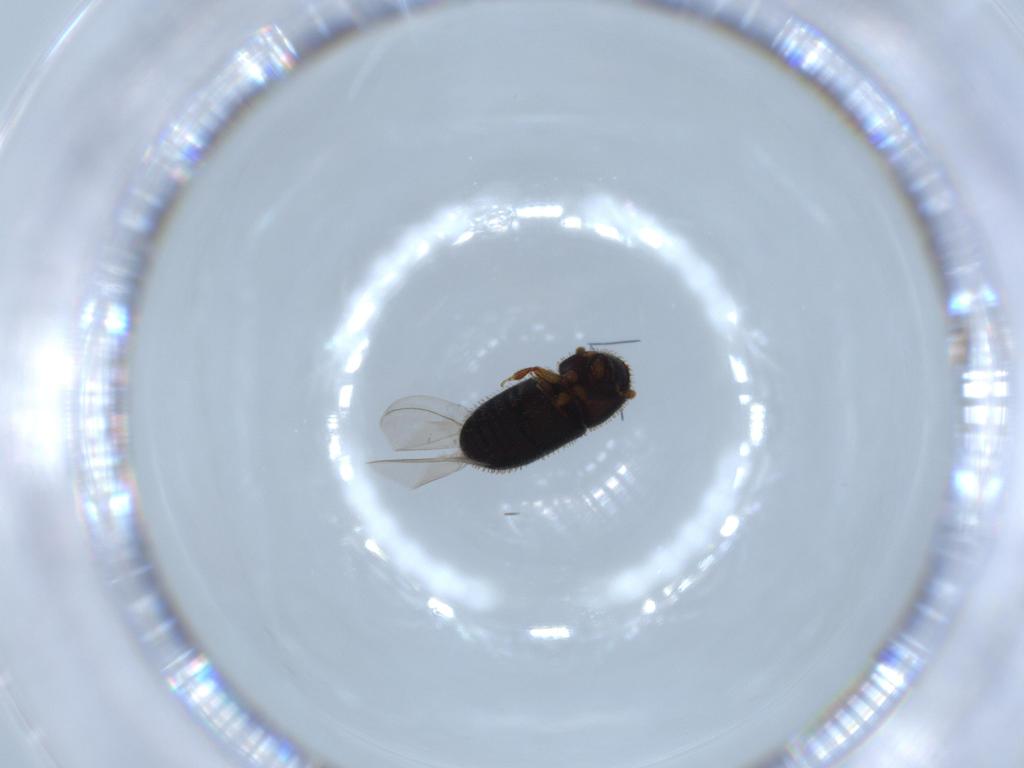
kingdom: Animalia
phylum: Arthropoda
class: Insecta
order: Coleoptera
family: Curculionidae
